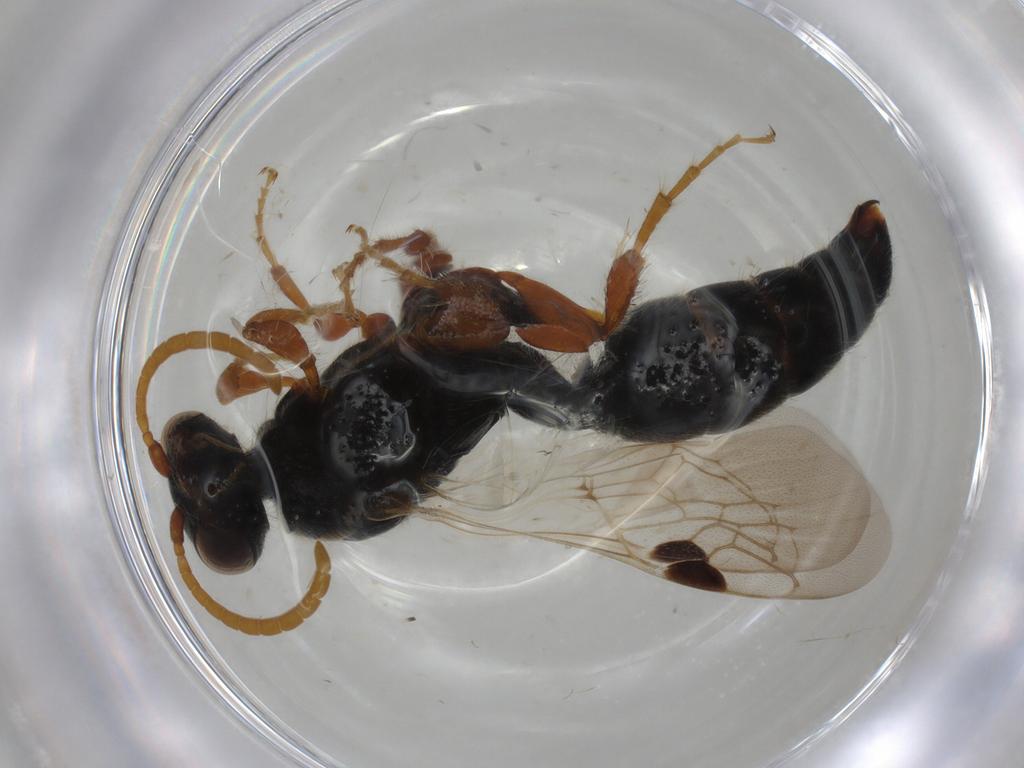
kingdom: Animalia
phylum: Arthropoda
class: Insecta
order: Hymenoptera
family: Tiphiidae
